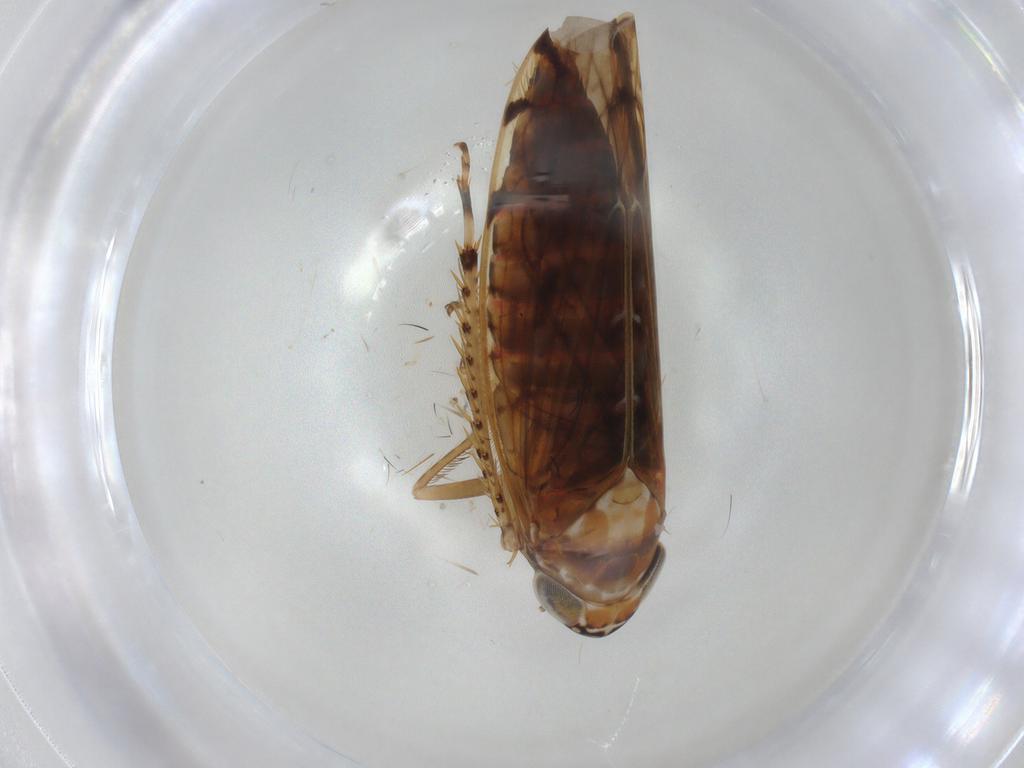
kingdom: Animalia
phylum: Arthropoda
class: Insecta
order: Hemiptera
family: Cicadellidae
